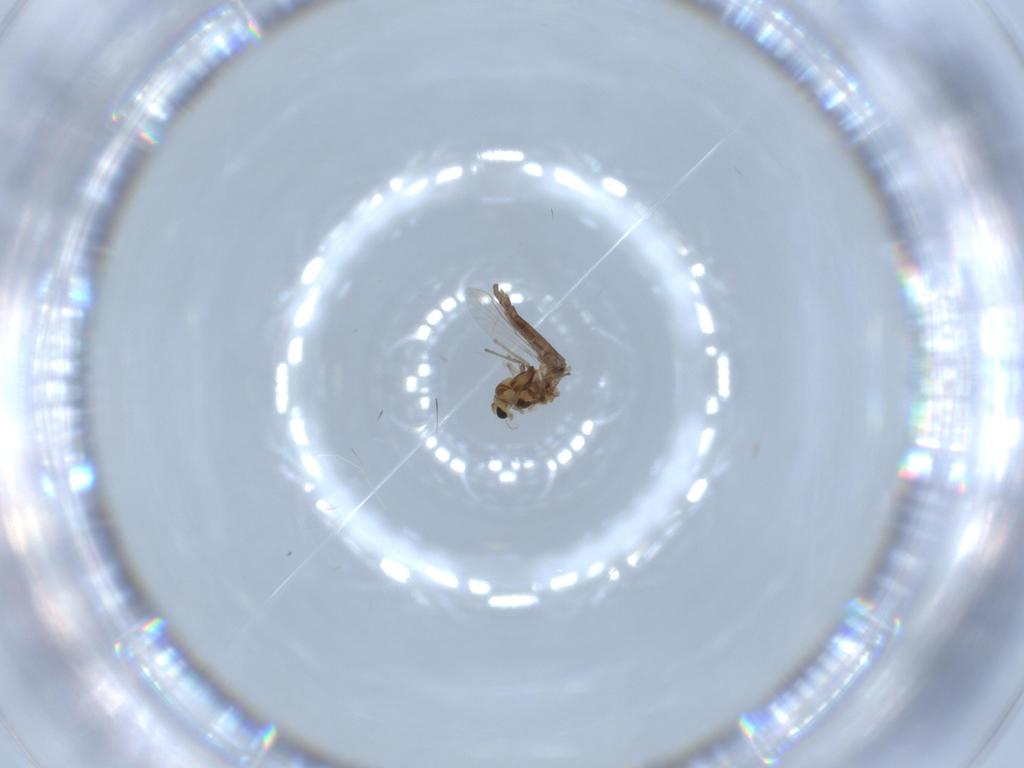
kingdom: Animalia
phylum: Arthropoda
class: Insecta
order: Diptera
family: Chironomidae
